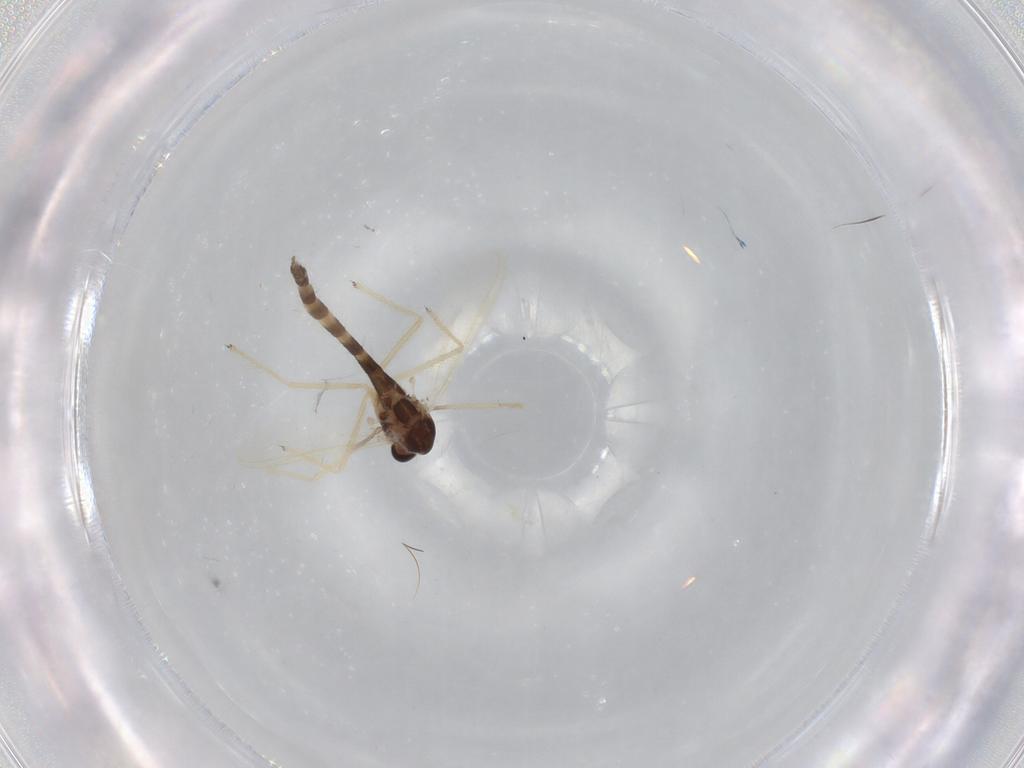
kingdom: Animalia
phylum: Arthropoda
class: Insecta
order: Diptera
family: Chironomidae
